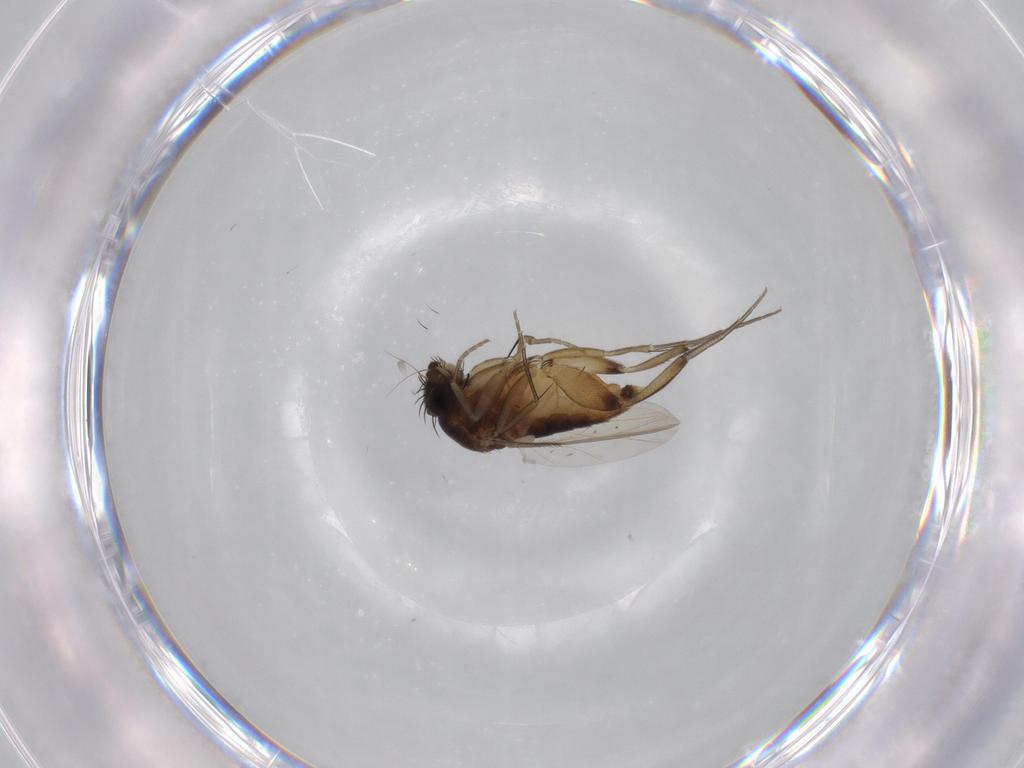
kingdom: Animalia
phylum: Arthropoda
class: Insecta
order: Diptera
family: Phoridae
